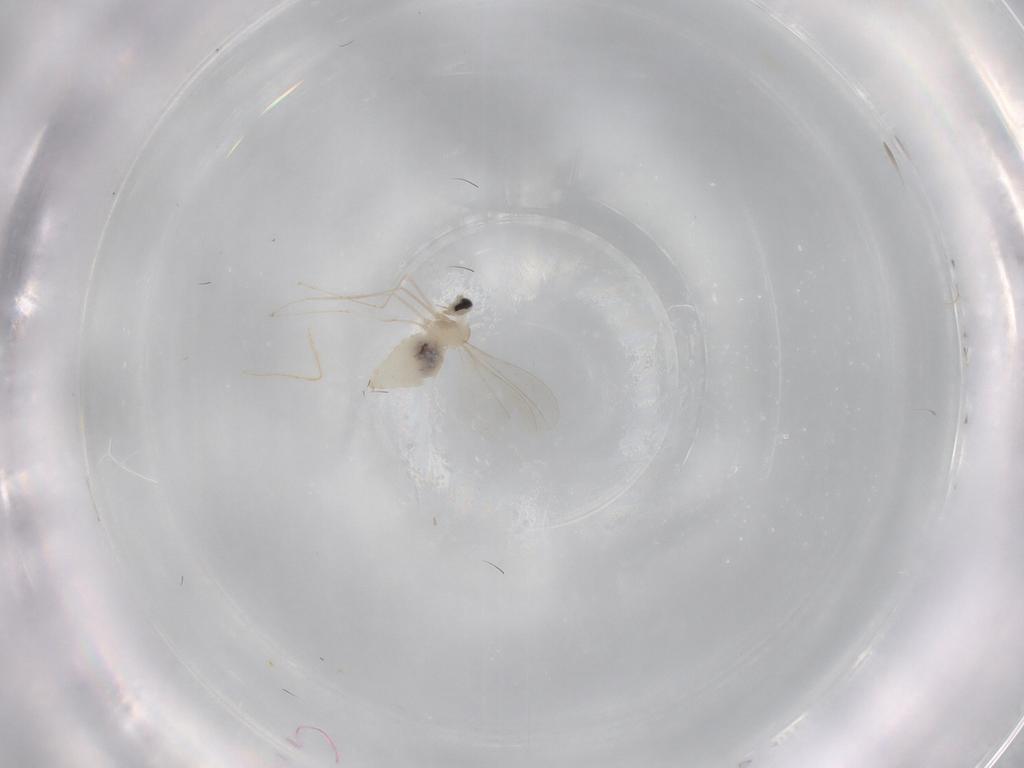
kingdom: Animalia
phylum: Arthropoda
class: Insecta
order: Diptera
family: Cecidomyiidae
